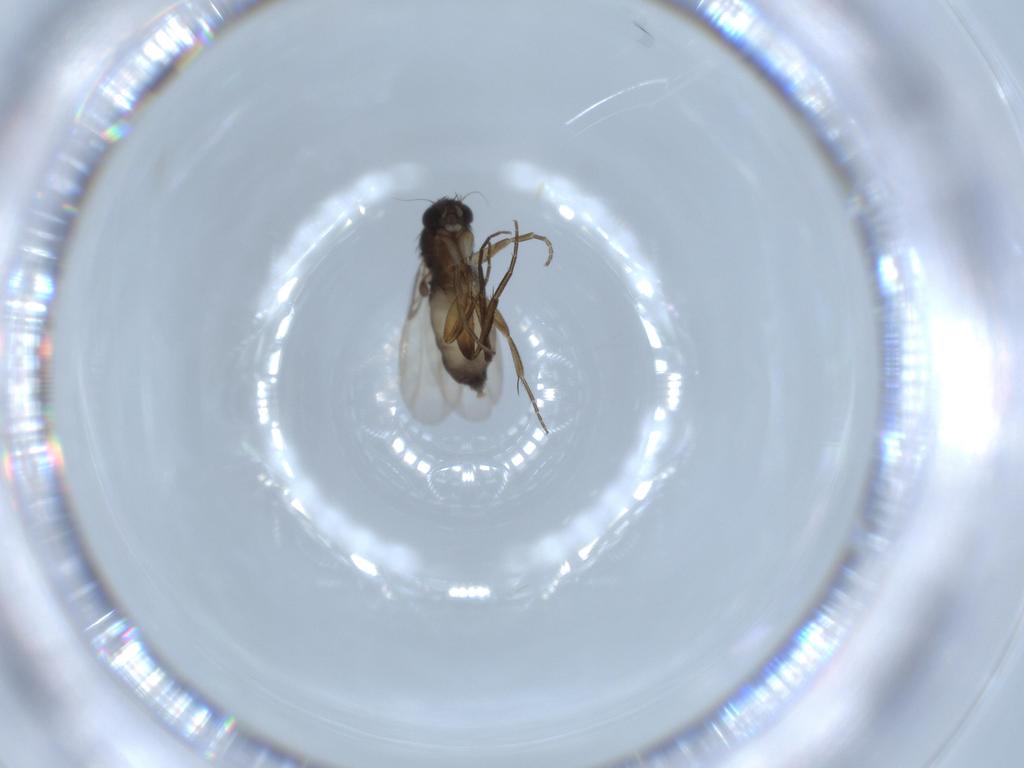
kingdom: Animalia
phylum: Arthropoda
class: Insecta
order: Diptera
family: Phoridae
